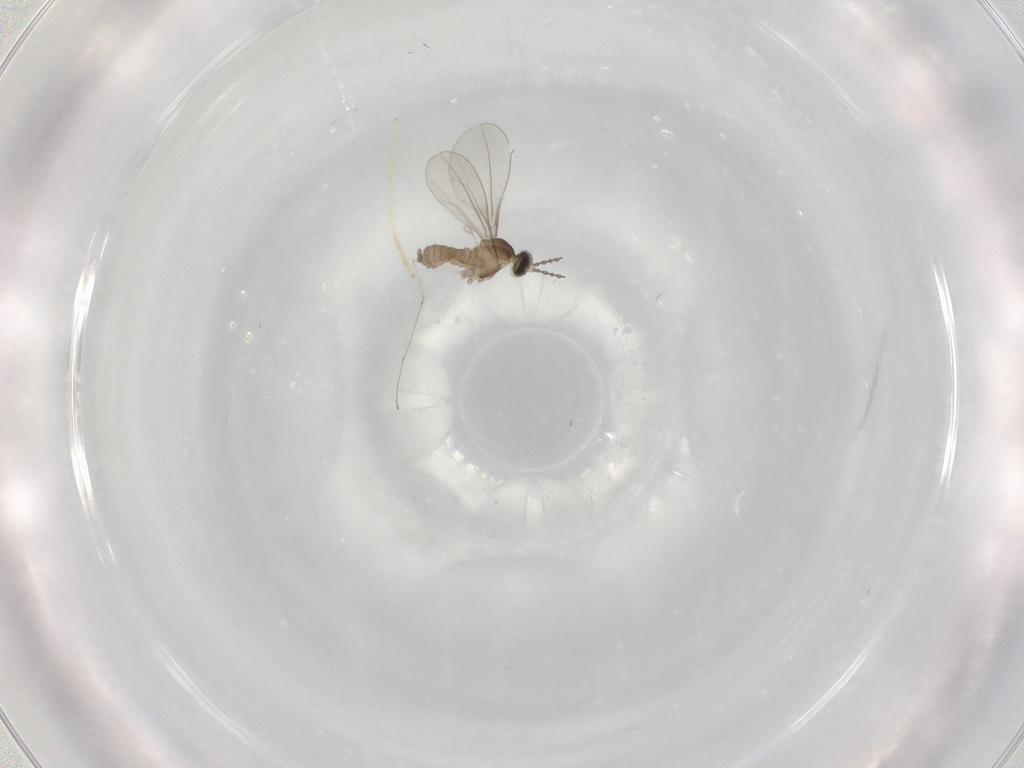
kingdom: Animalia
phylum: Arthropoda
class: Insecta
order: Diptera
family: Cecidomyiidae
